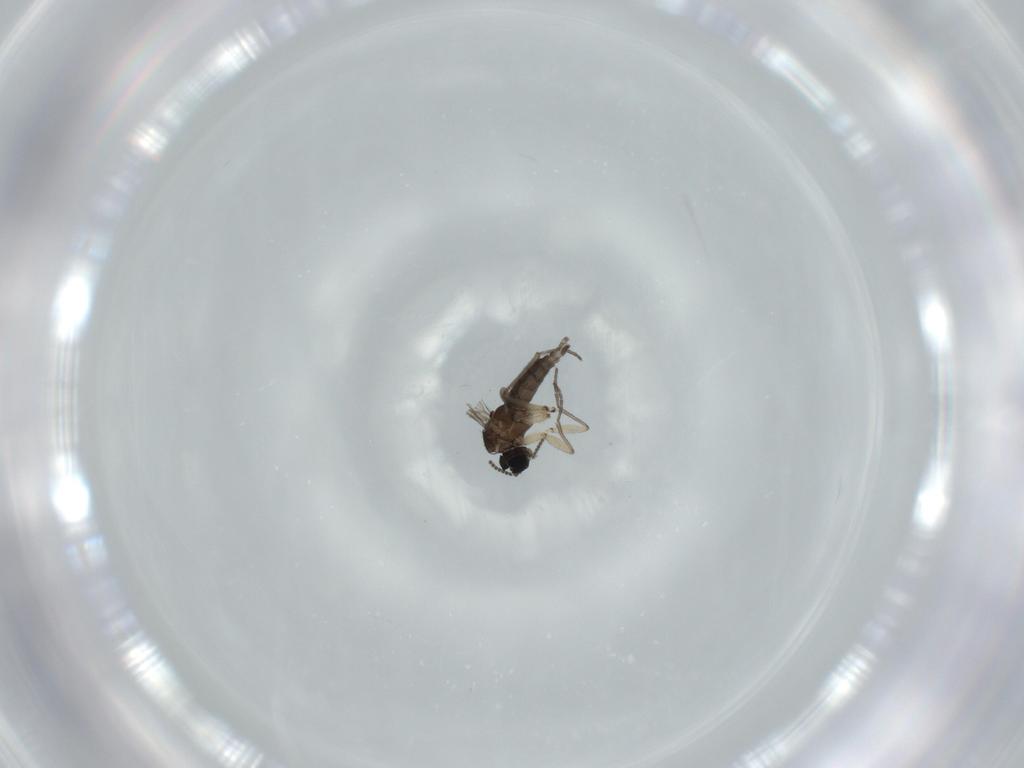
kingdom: Animalia
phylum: Arthropoda
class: Insecta
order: Diptera
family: Sciaridae
